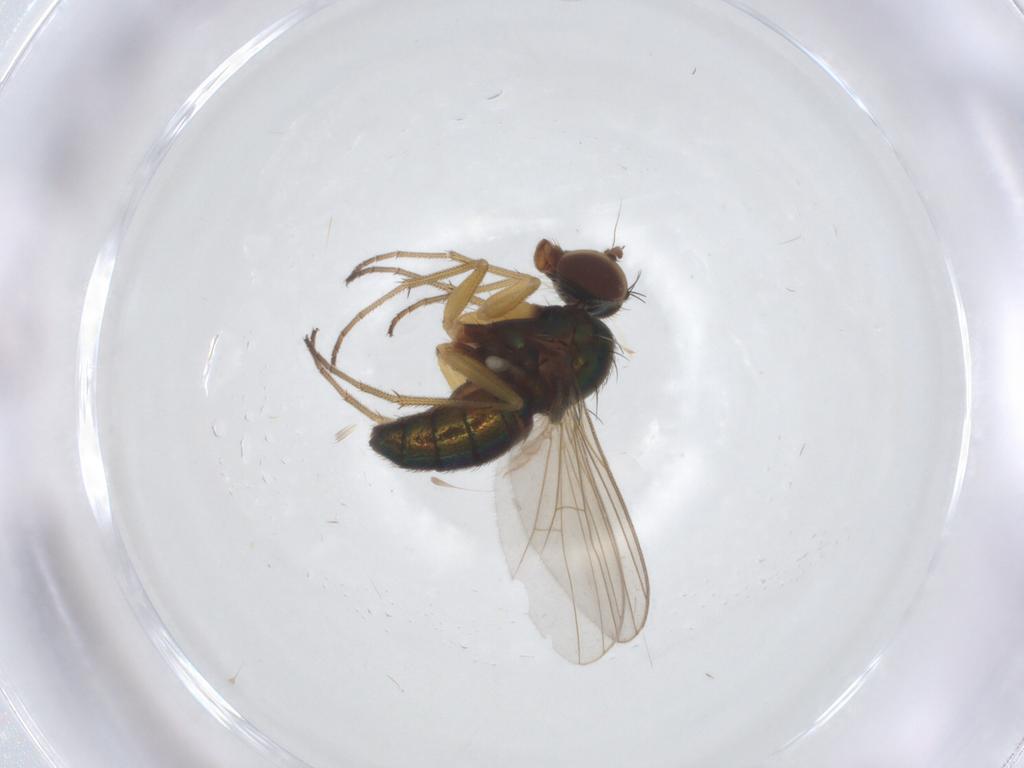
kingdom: Animalia
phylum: Arthropoda
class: Insecta
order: Diptera
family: Dolichopodidae
